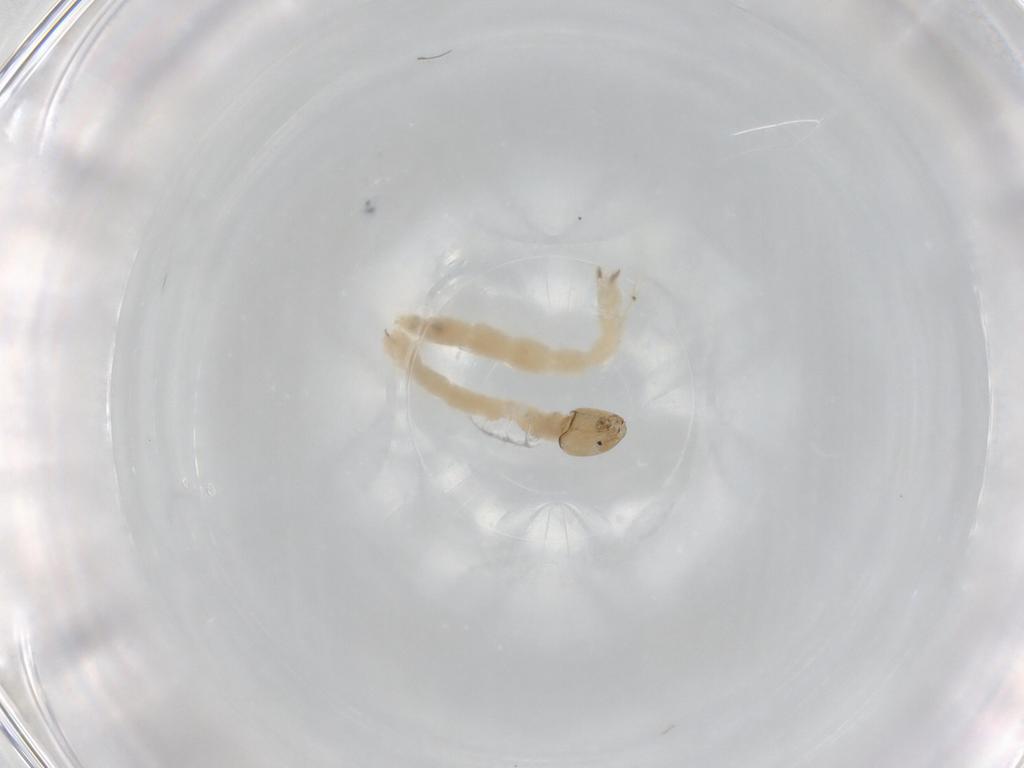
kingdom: Animalia
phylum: Arthropoda
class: Insecta
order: Diptera
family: Chironomidae
